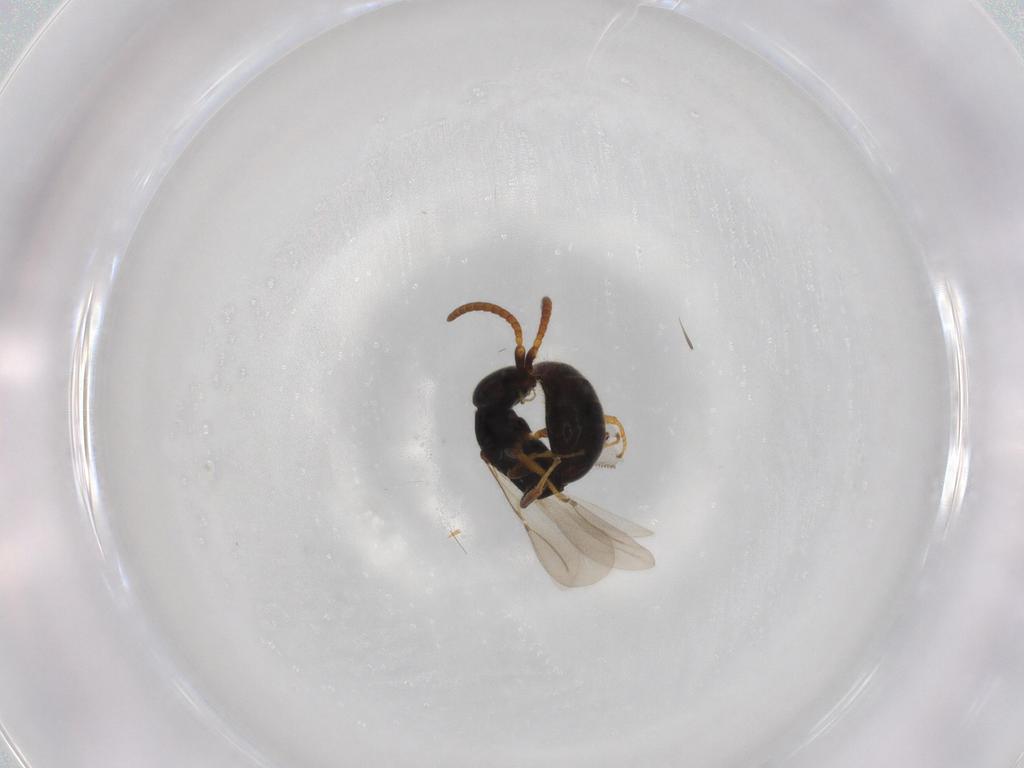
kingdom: Animalia
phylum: Arthropoda
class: Insecta
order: Hymenoptera
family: Bethylidae
